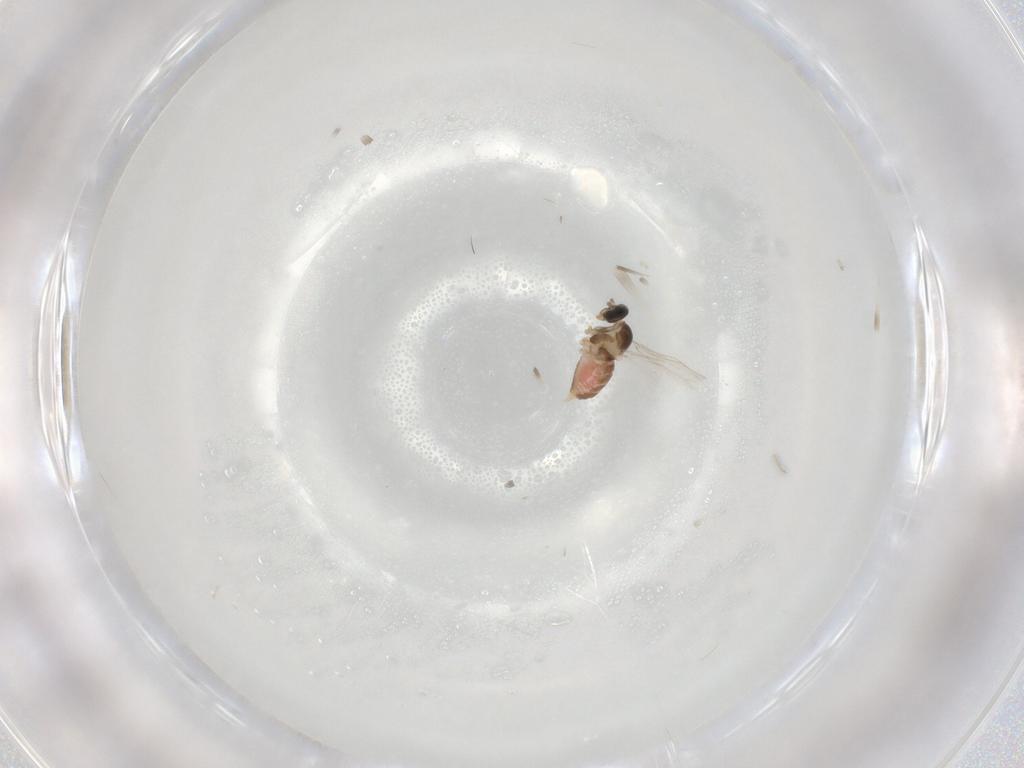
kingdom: Animalia
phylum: Arthropoda
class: Insecta
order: Diptera
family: Cecidomyiidae
